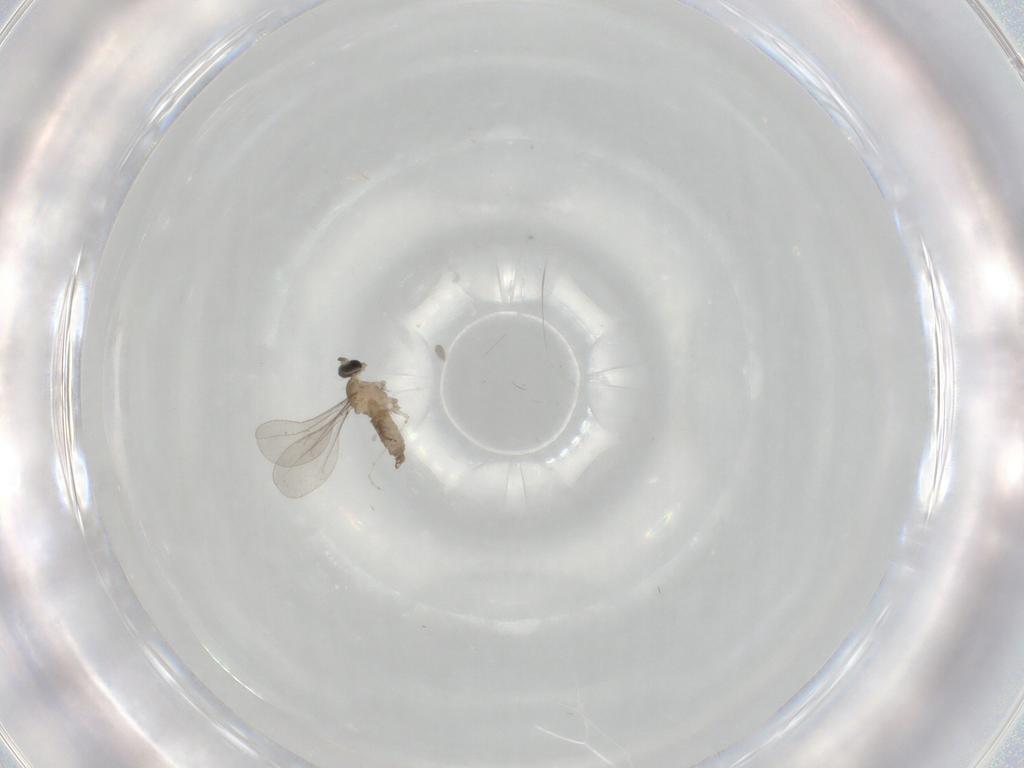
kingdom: Animalia
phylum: Arthropoda
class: Insecta
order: Diptera
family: Cecidomyiidae
